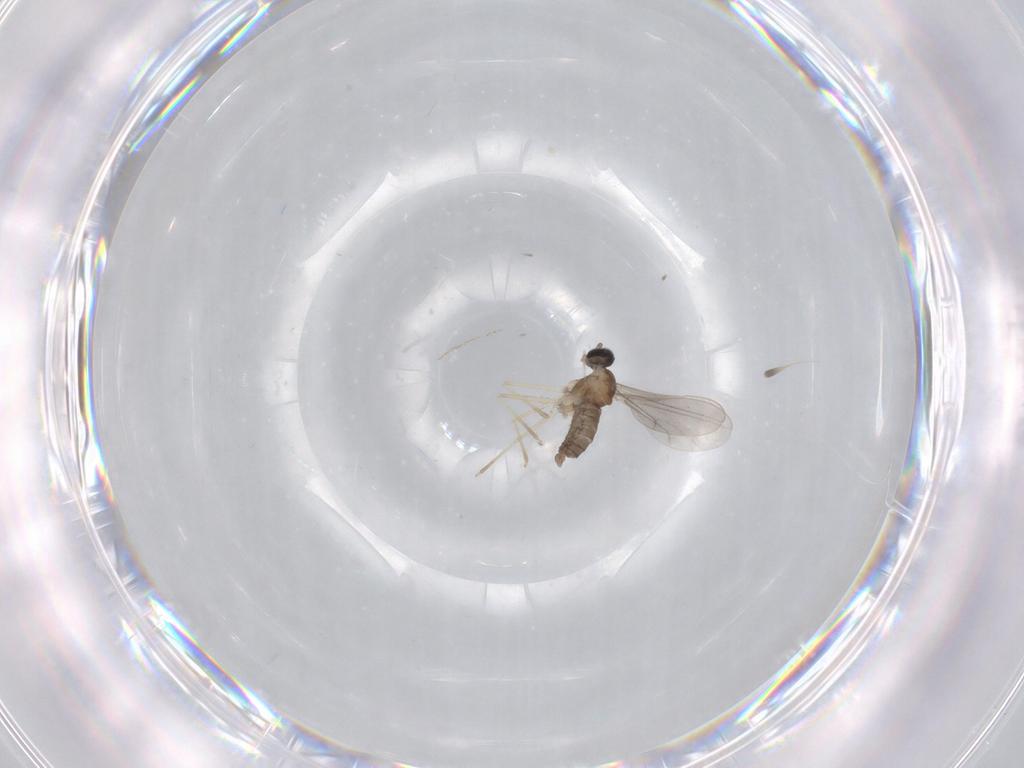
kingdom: Animalia
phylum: Arthropoda
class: Insecta
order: Diptera
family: Cecidomyiidae
